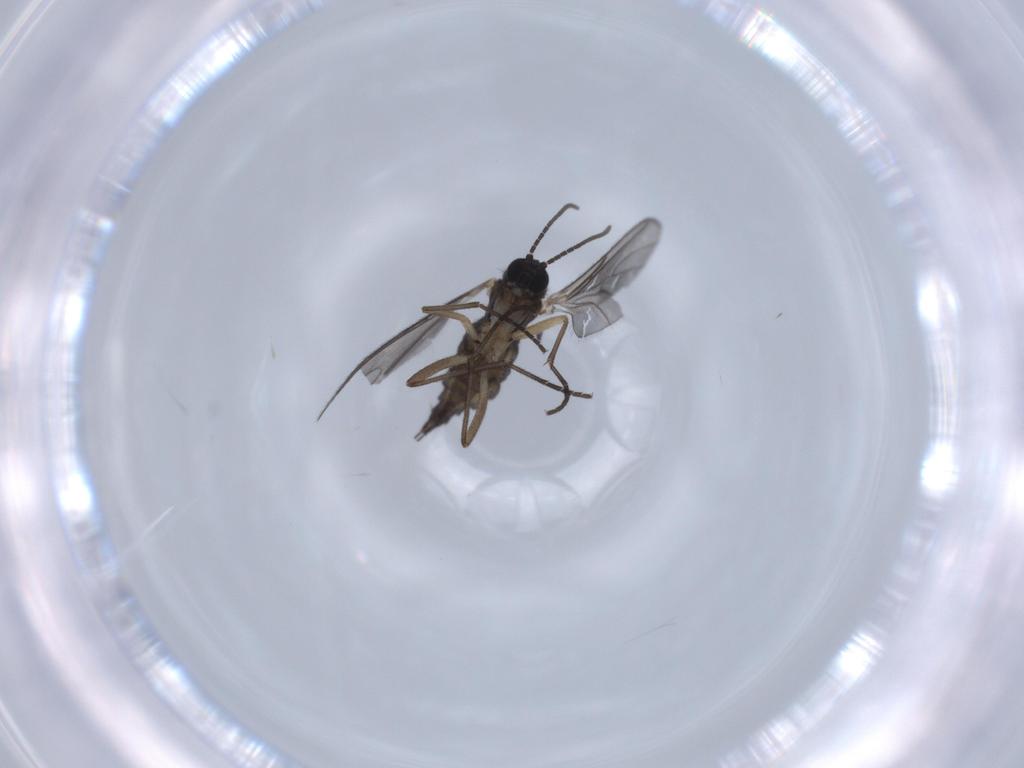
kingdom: Animalia
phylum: Arthropoda
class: Insecta
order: Diptera
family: Sciaridae
